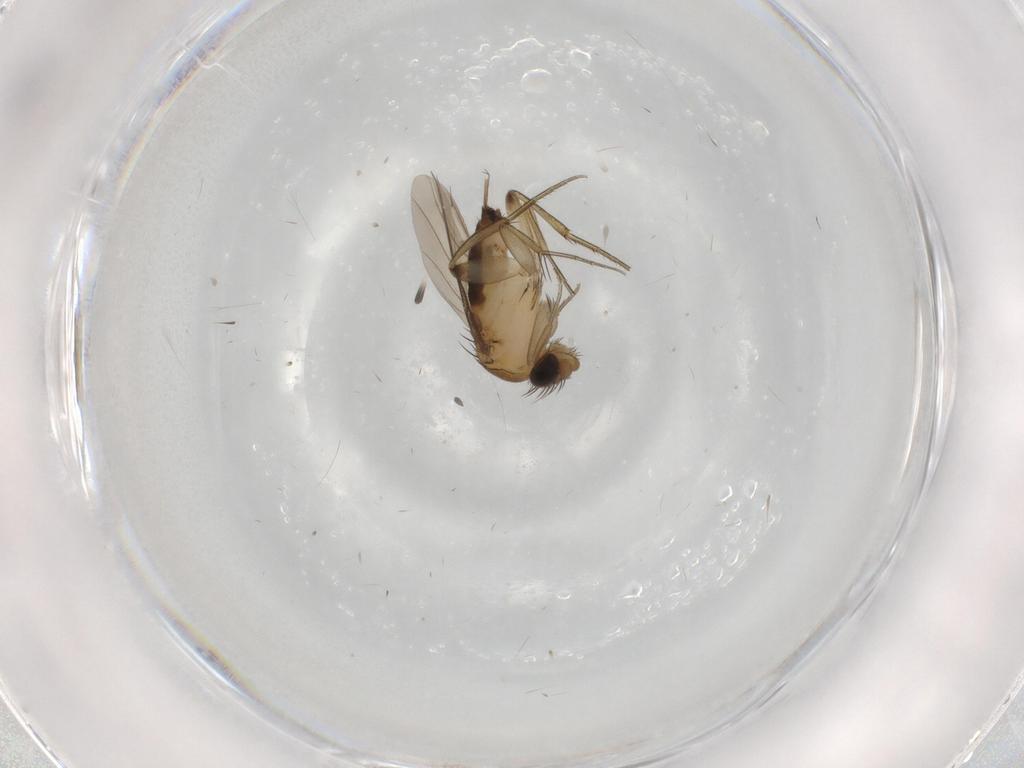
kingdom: Animalia
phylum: Arthropoda
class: Insecta
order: Diptera
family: Phoridae
